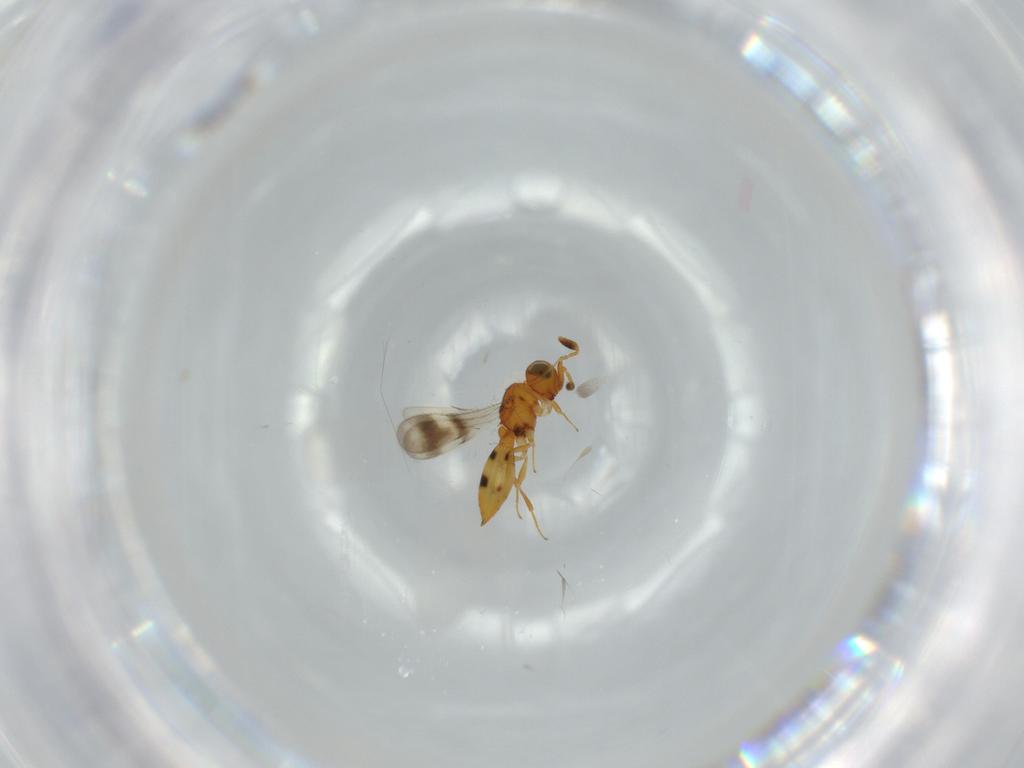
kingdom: Animalia
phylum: Arthropoda
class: Insecta
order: Hymenoptera
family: Scelionidae
